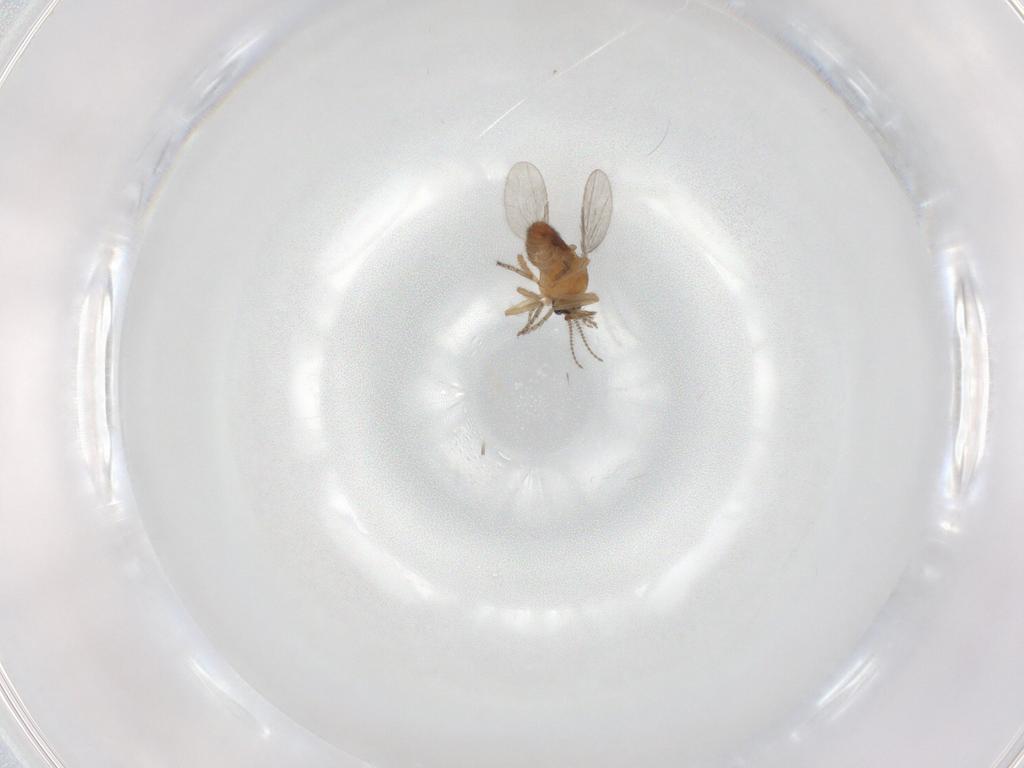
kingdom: Animalia
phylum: Arthropoda
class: Insecta
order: Diptera
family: Ceratopogonidae
